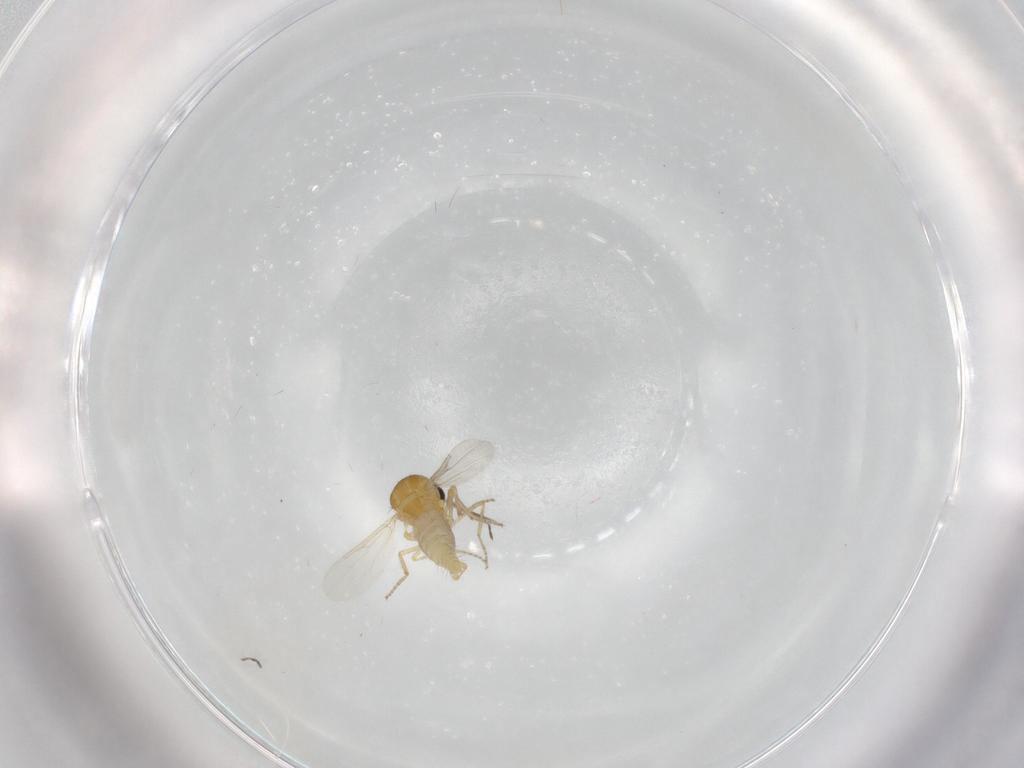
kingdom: Animalia
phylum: Arthropoda
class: Insecta
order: Diptera
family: Ceratopogonidae
